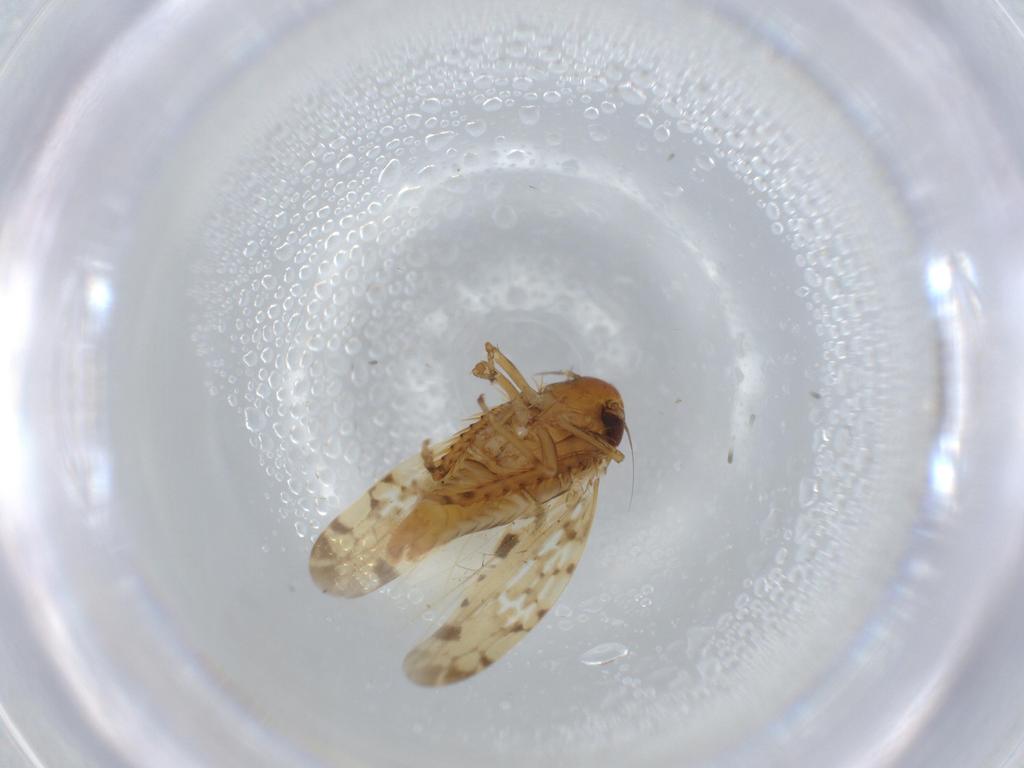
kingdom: Animalia
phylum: Arthropoda
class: Insecta
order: Hemiptera
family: Cicadellidae
